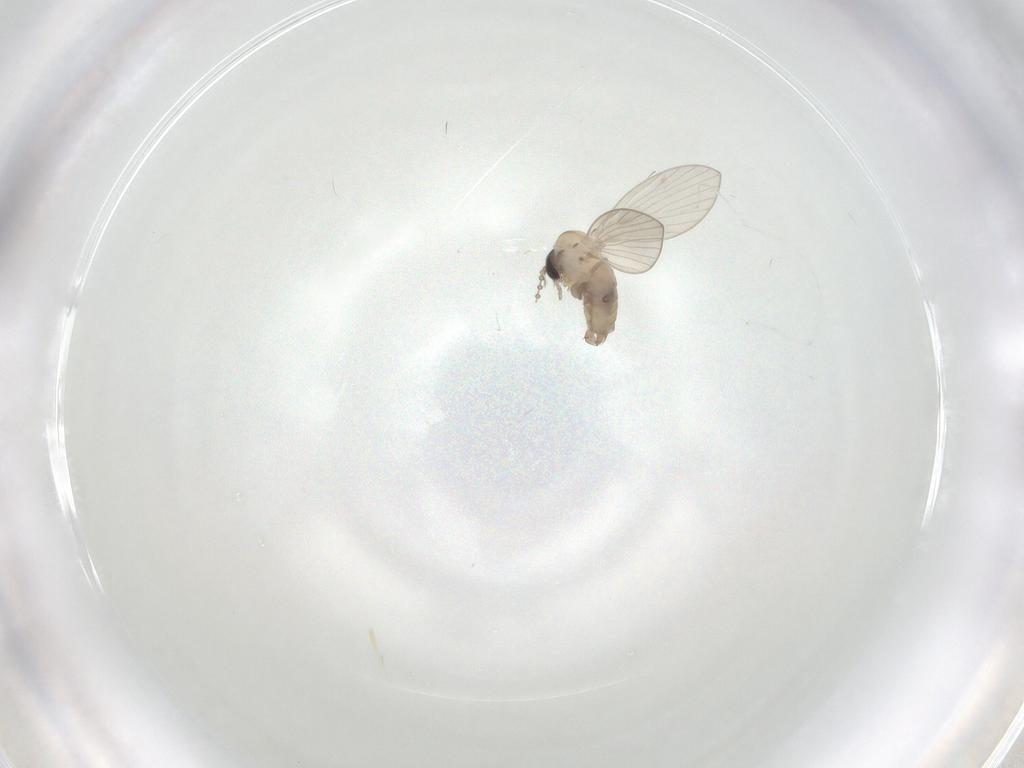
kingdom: Animalia
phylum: Arthropoda
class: Insecta
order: Diptera
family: Psychodidae
